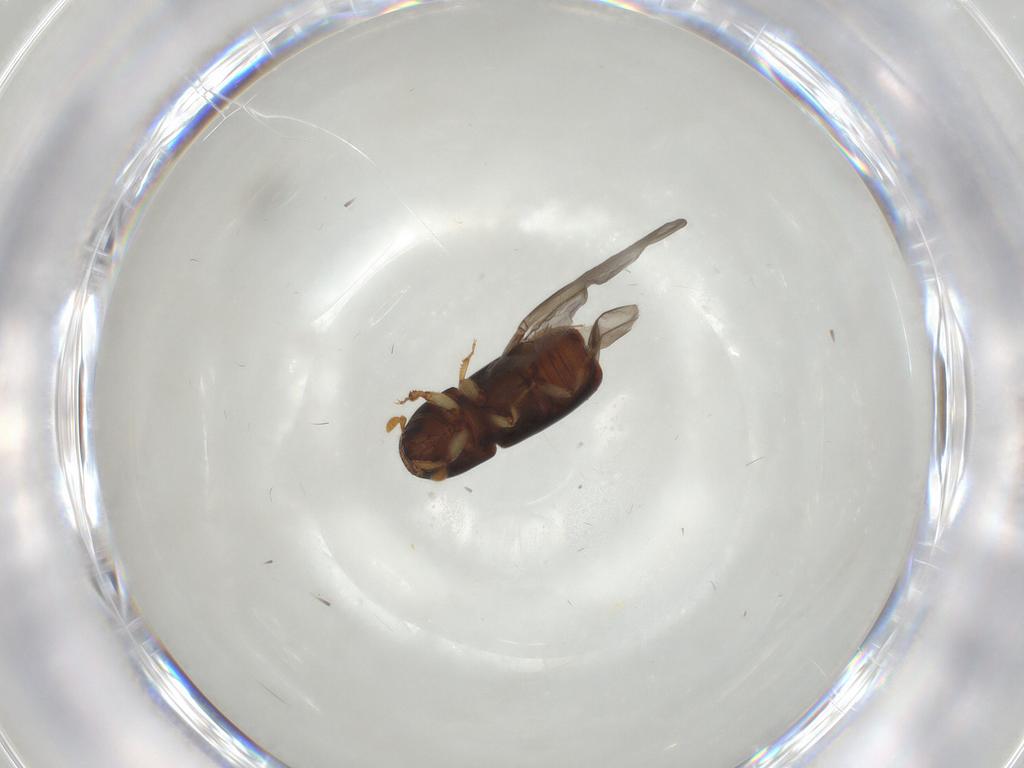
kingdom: Animalia
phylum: Arthropoda
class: Insecta
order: Coleoptera
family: Curculionidae
